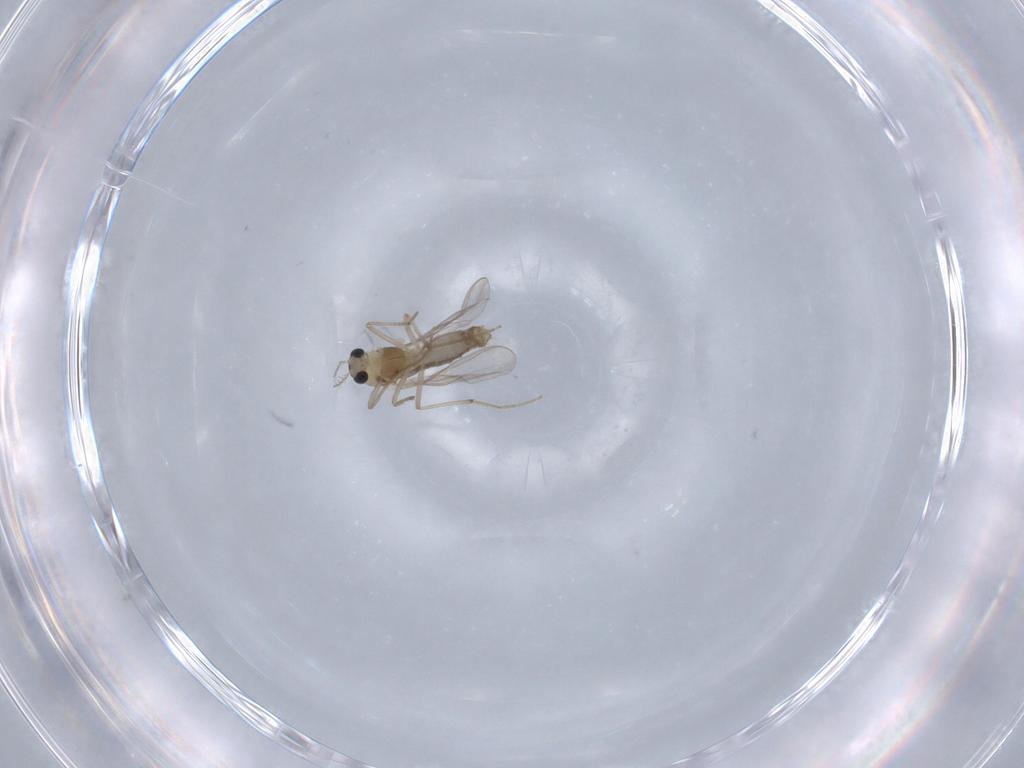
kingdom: Animalia
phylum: Arthropoda
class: Insecta
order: Diptera
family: Chironomidae
